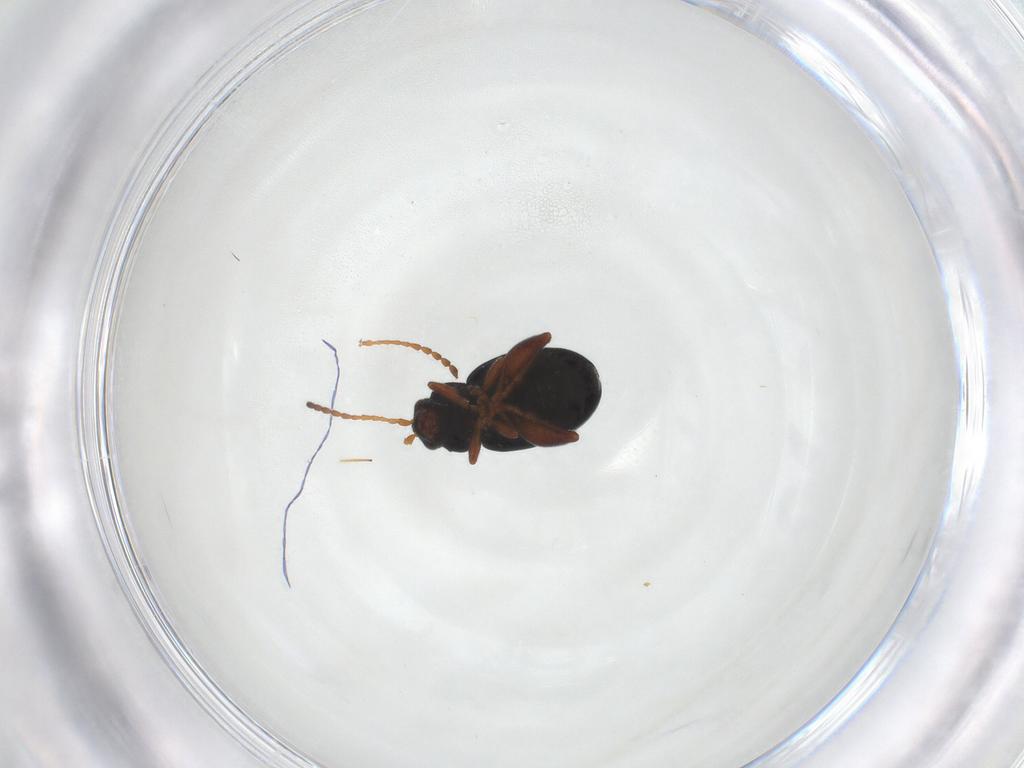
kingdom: Animalia
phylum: Arthropoda
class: Insecta
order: Coleoptera
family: Chrysomelidae
